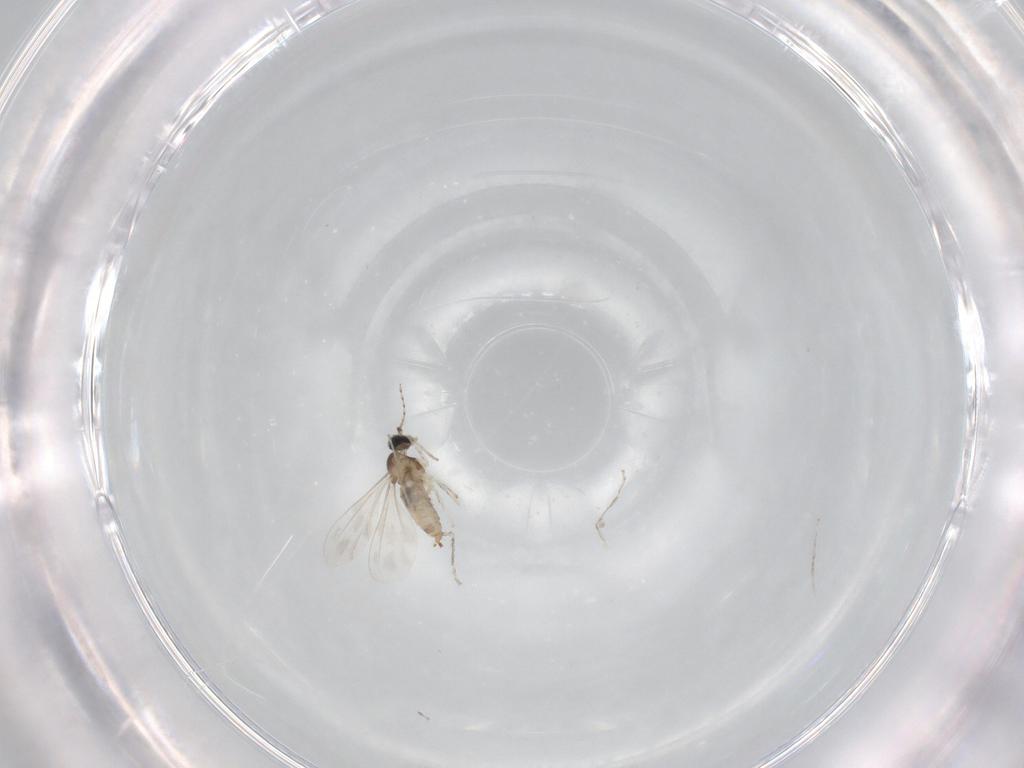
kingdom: Animalia
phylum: Arthropoda
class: Insecta
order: Diptera
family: Cecidomyiidae
